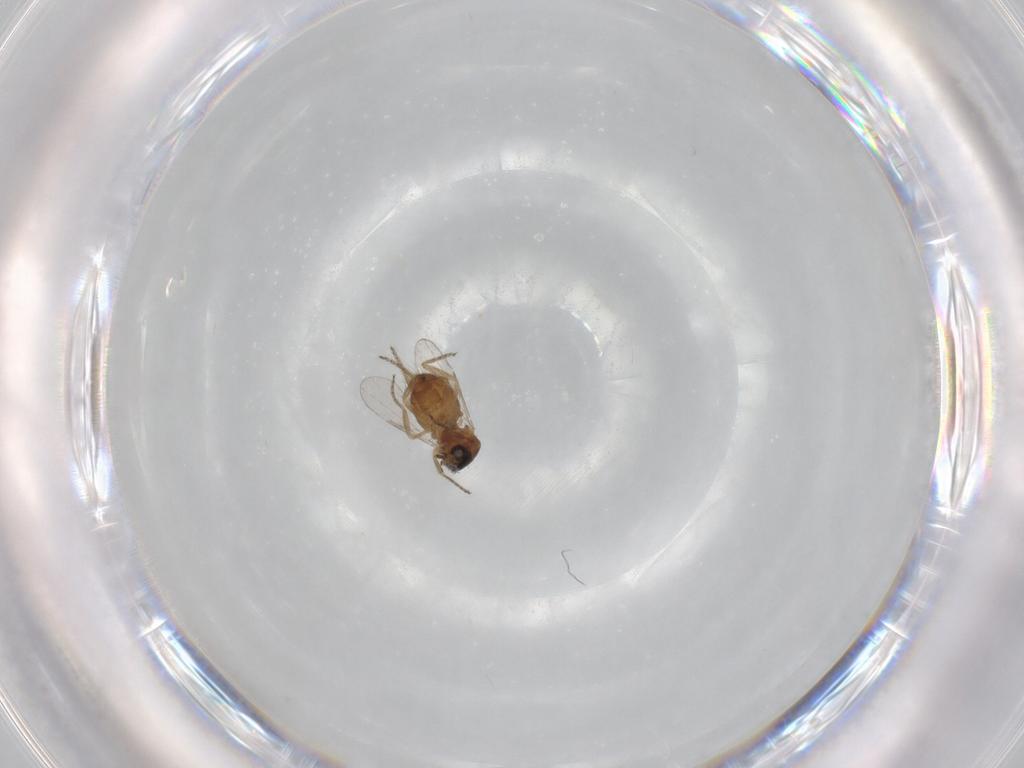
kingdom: Animalia
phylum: Arthropoda
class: Insecta
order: Diptera
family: Ceratopogonidae
